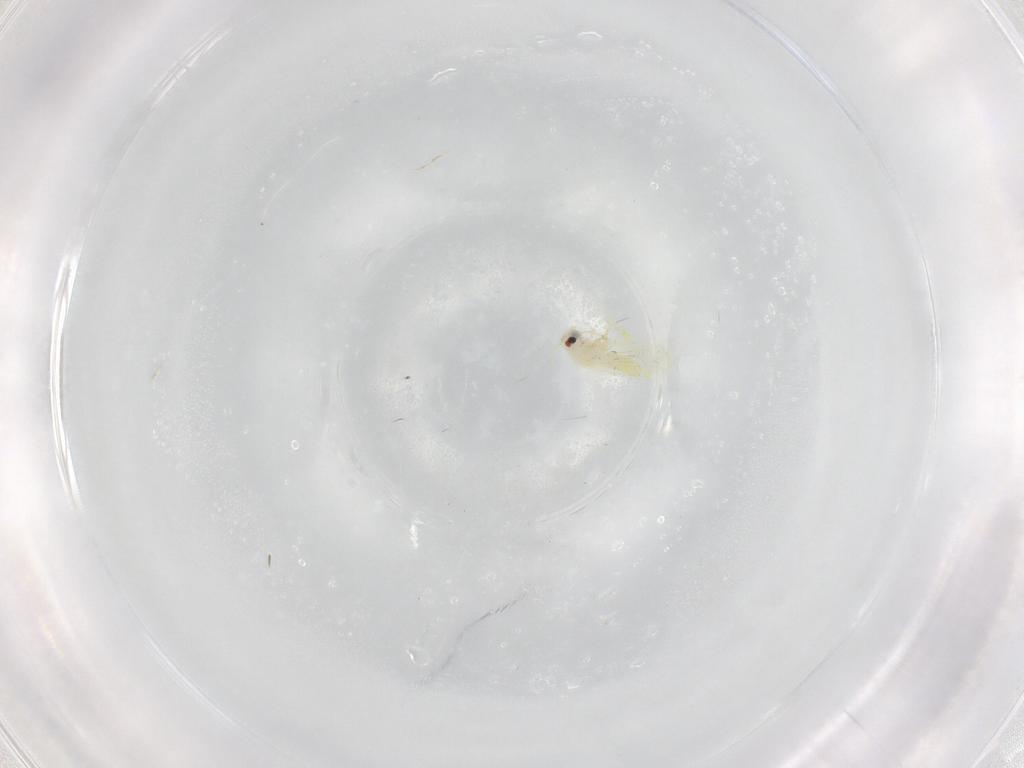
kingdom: Animalia
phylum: Arthropoda
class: Insecta
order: Hemiptera
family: Aleyrodidae
